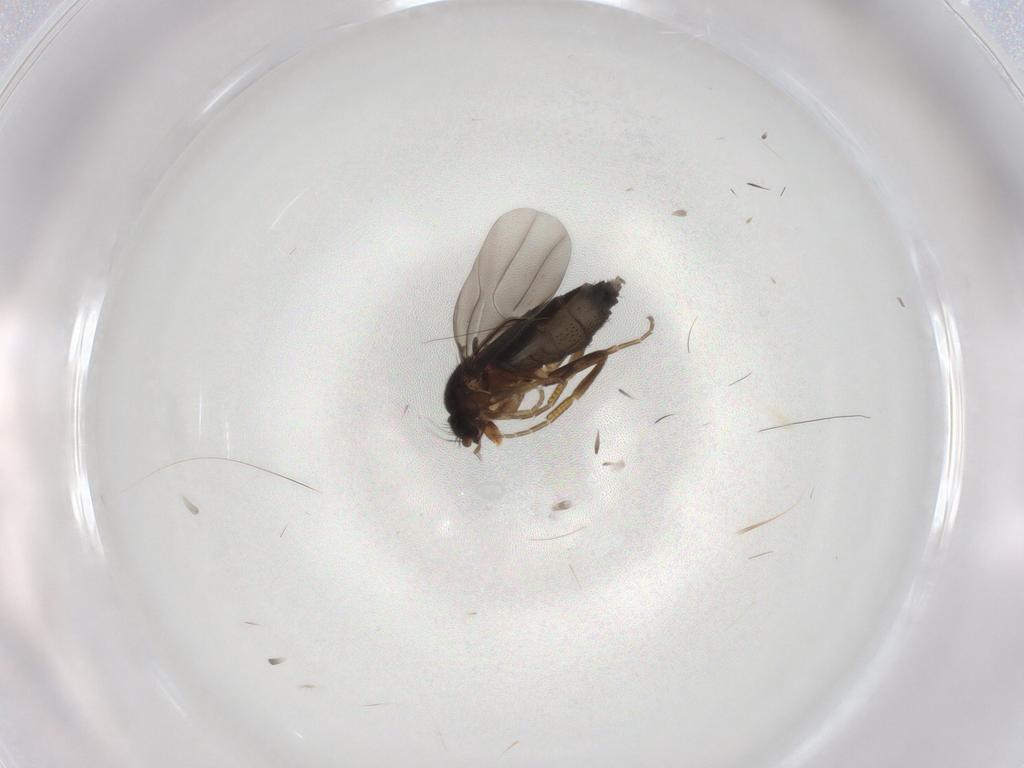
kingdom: Animalia
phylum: Arthropoda
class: Insecta
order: Diptera
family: Phoridae
